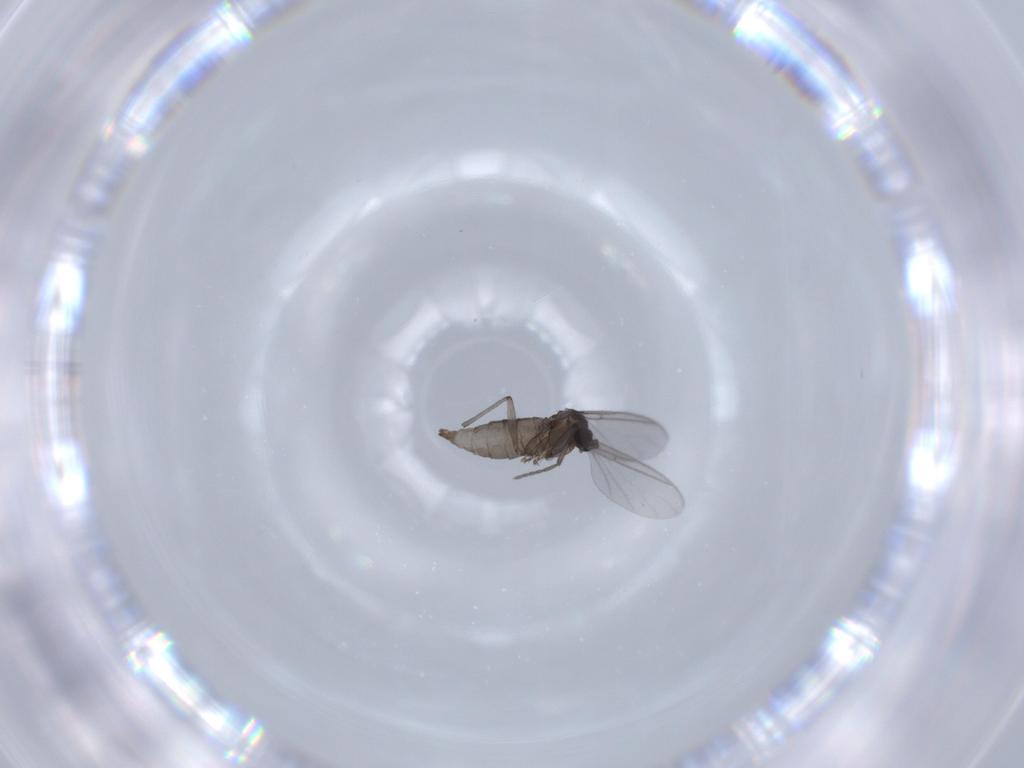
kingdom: Animalia
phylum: Arthropoda
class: Insecta
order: Diptera
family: Sciaridae
